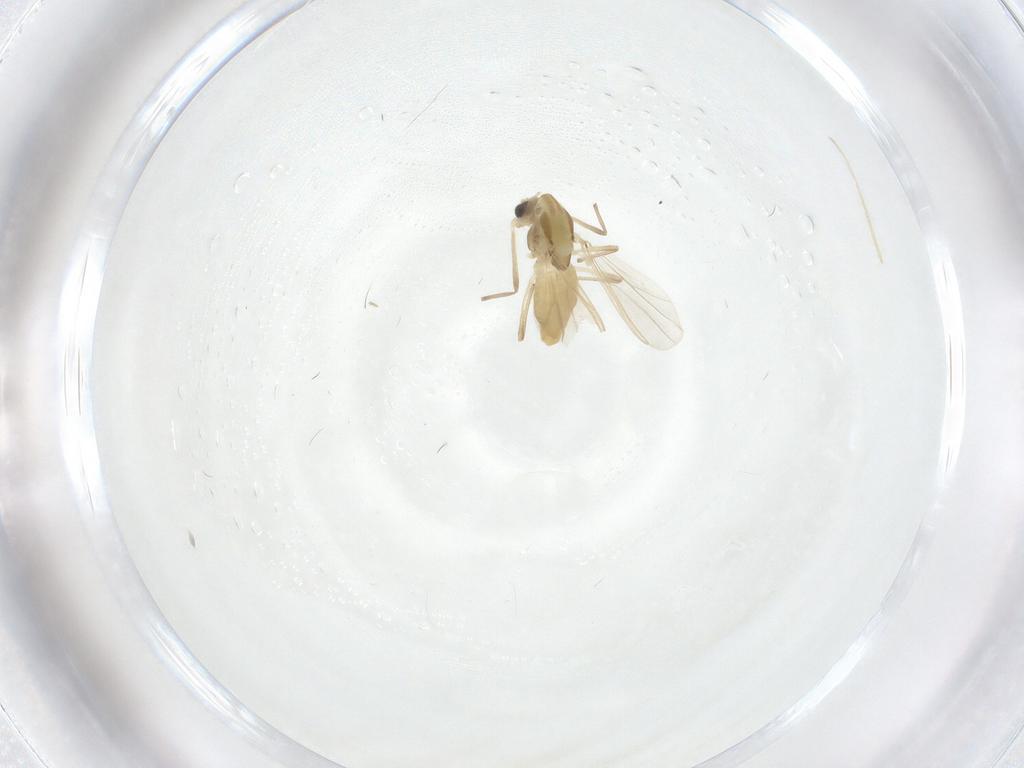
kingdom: Animalia
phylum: Arthropoda
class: Insecta
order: Diptera
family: Chironomidae
